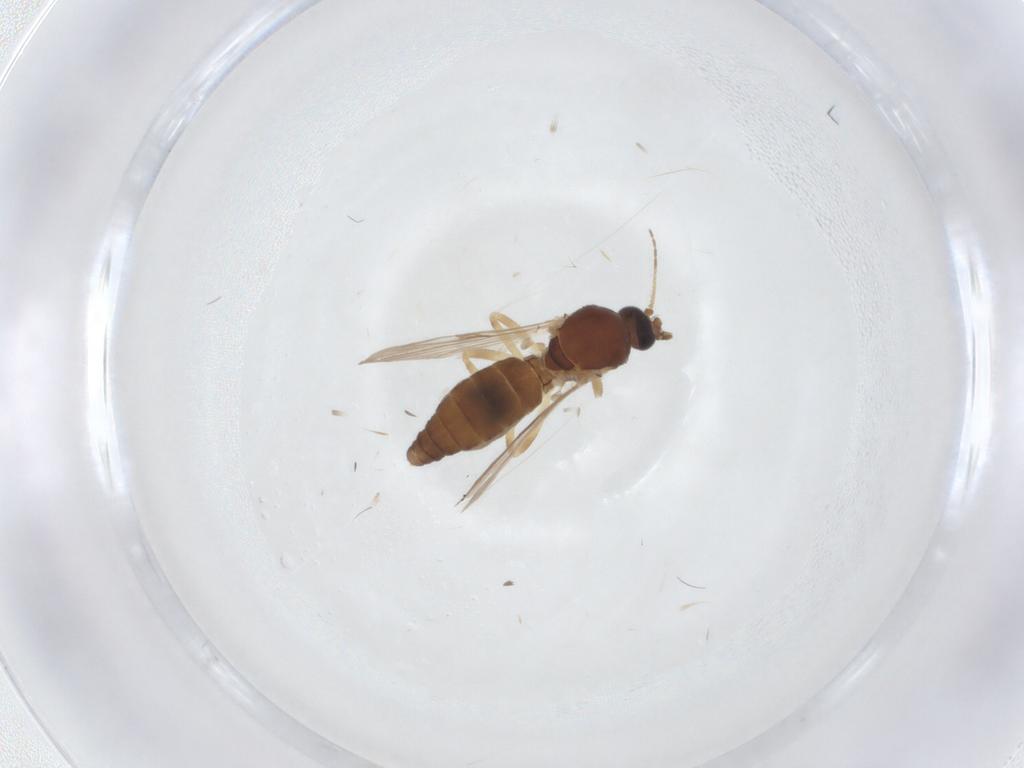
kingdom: Animalia
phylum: Arthropoda
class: Insecta
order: Diptera
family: Ceratopogonidae
